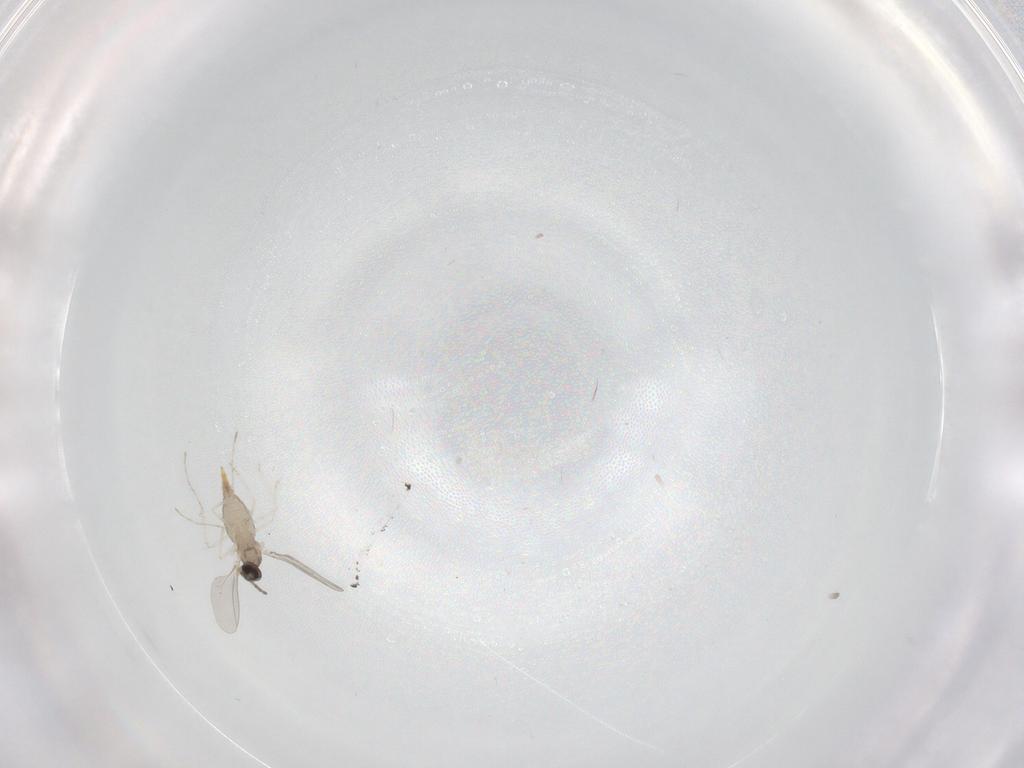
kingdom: Animalia
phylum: Arthropoda
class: Insecta
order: Diptera
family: Cecidomyiidae
